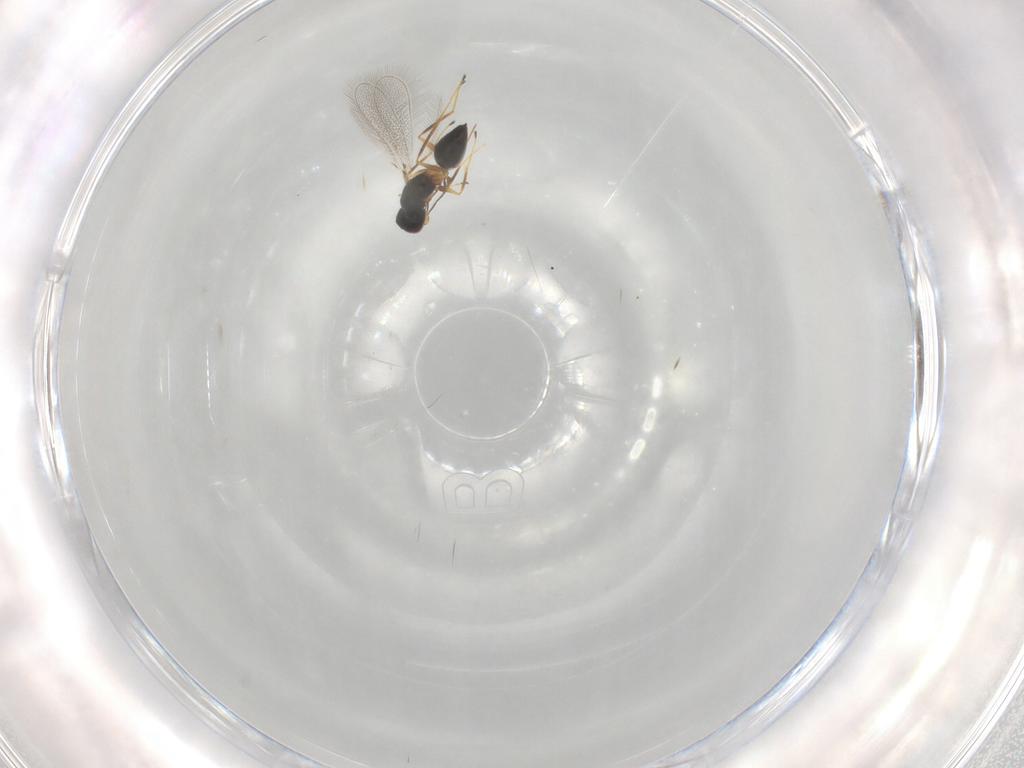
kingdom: Animalia
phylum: Arthropoda
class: Insecta
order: Hymenoptera
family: Mymaridae
